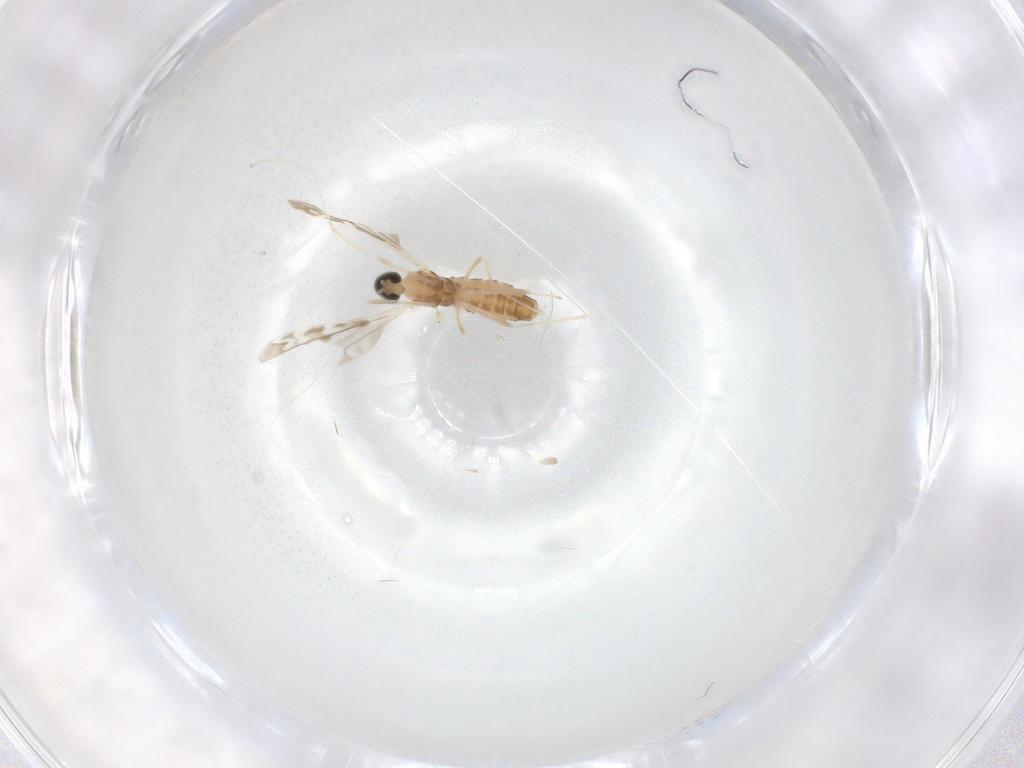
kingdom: Animalia
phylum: Arthropoda
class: Insecta
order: Diptera
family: Cecidomyiidae
